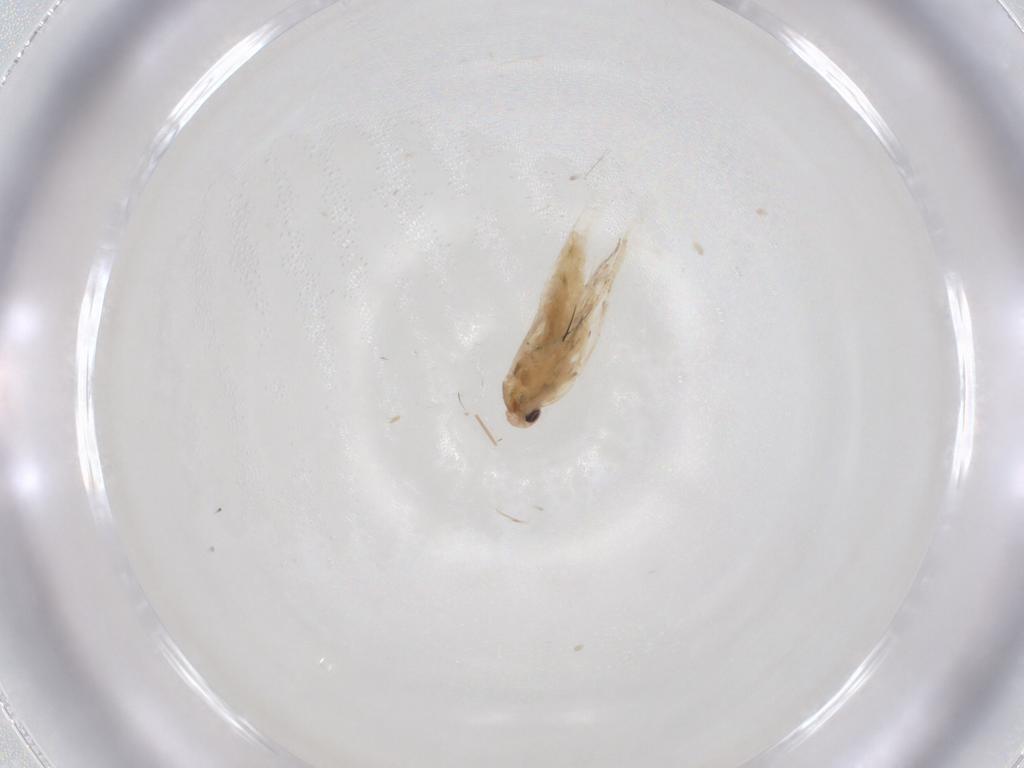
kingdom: Animalia
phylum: Arthropoda
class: Insecta
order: Lepidoptera
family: Gracillariidae
